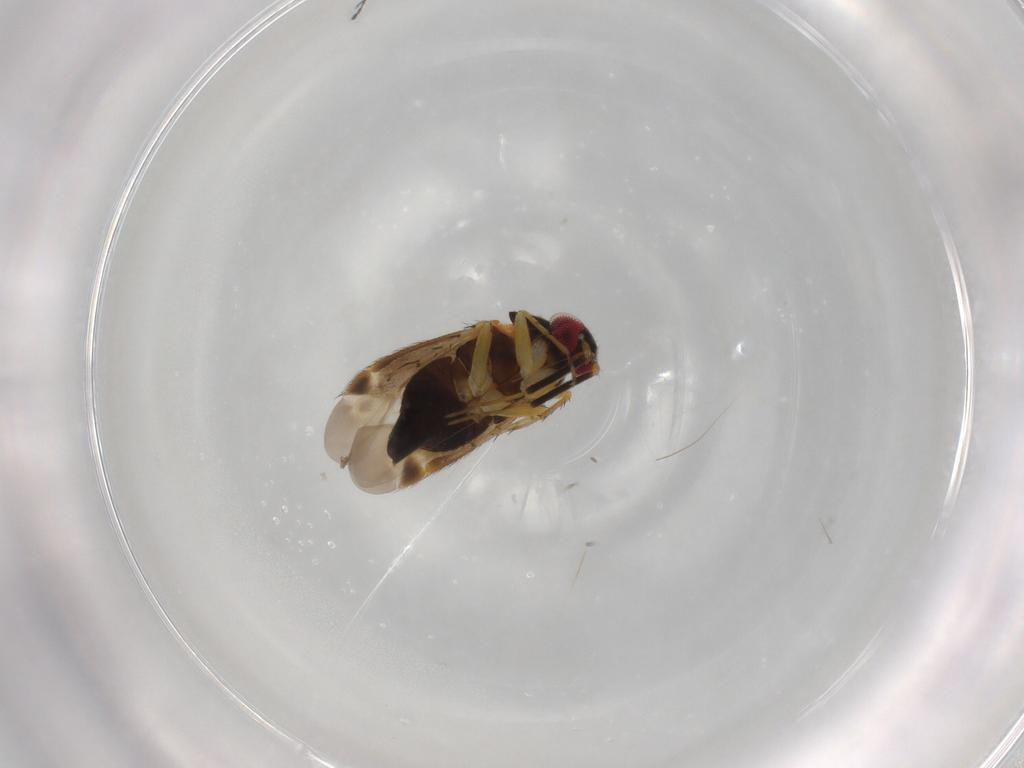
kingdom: Animalia
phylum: Arthropoda
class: Insecta
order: Hemiptera
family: Miridae
